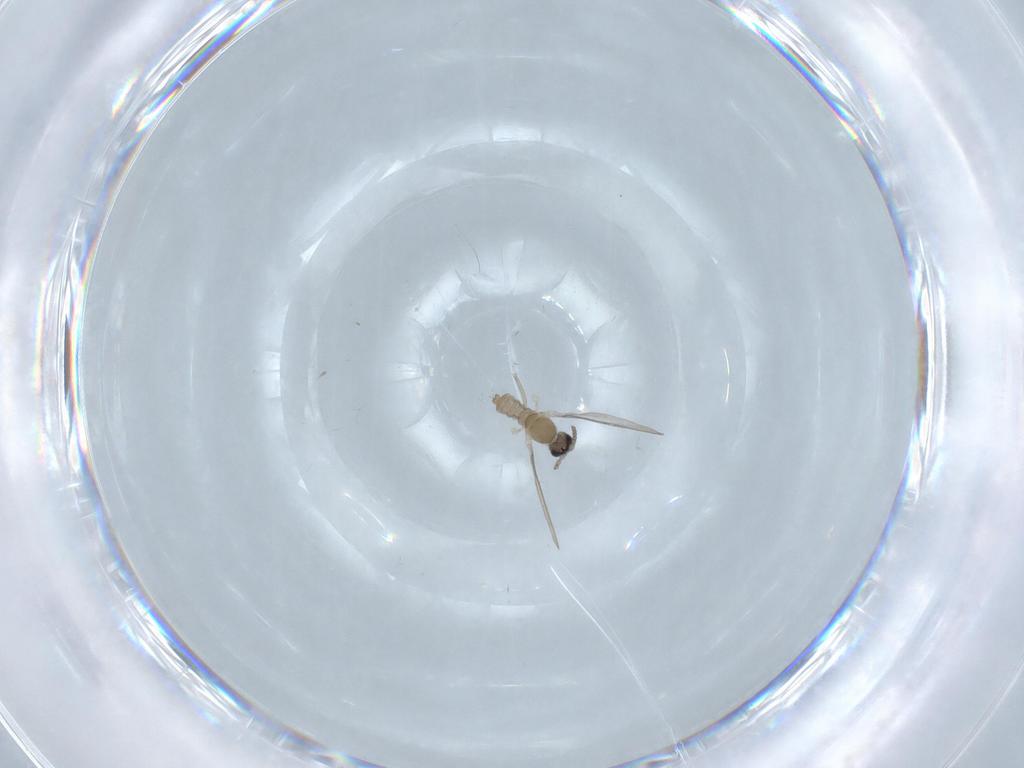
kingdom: Animalia
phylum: Arthropoda
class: Insecta
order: Diptera
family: Cecidomyiidae
